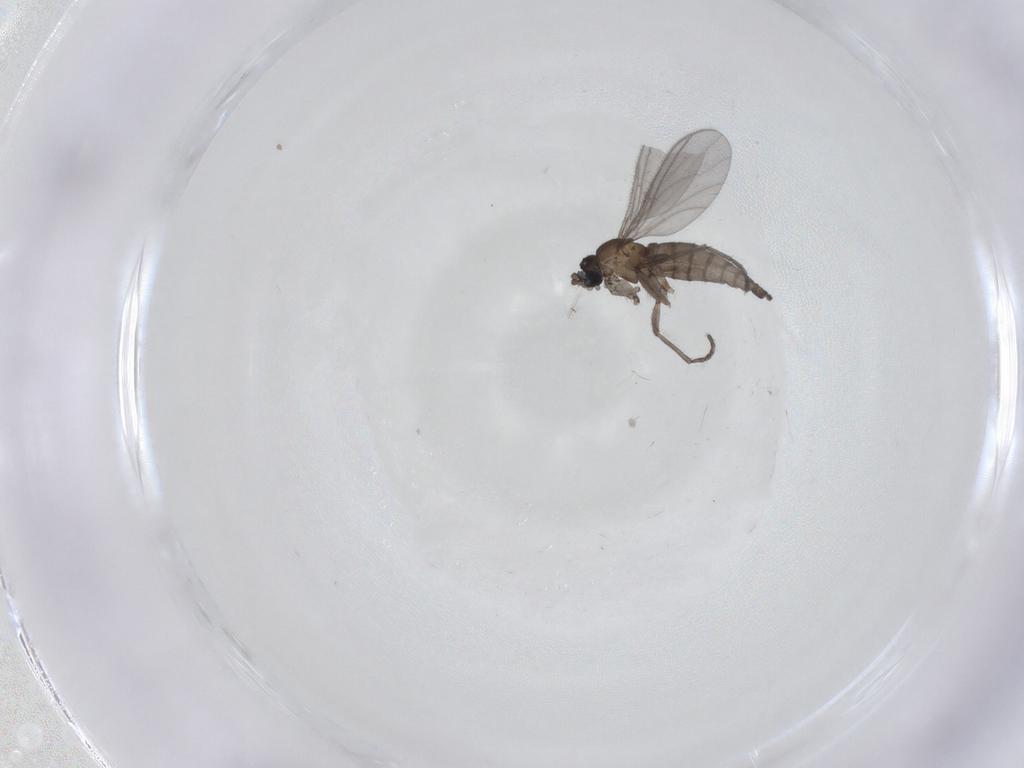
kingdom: Animalia
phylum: Arthropoda
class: Insecta
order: Diptera
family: Sciaridae
